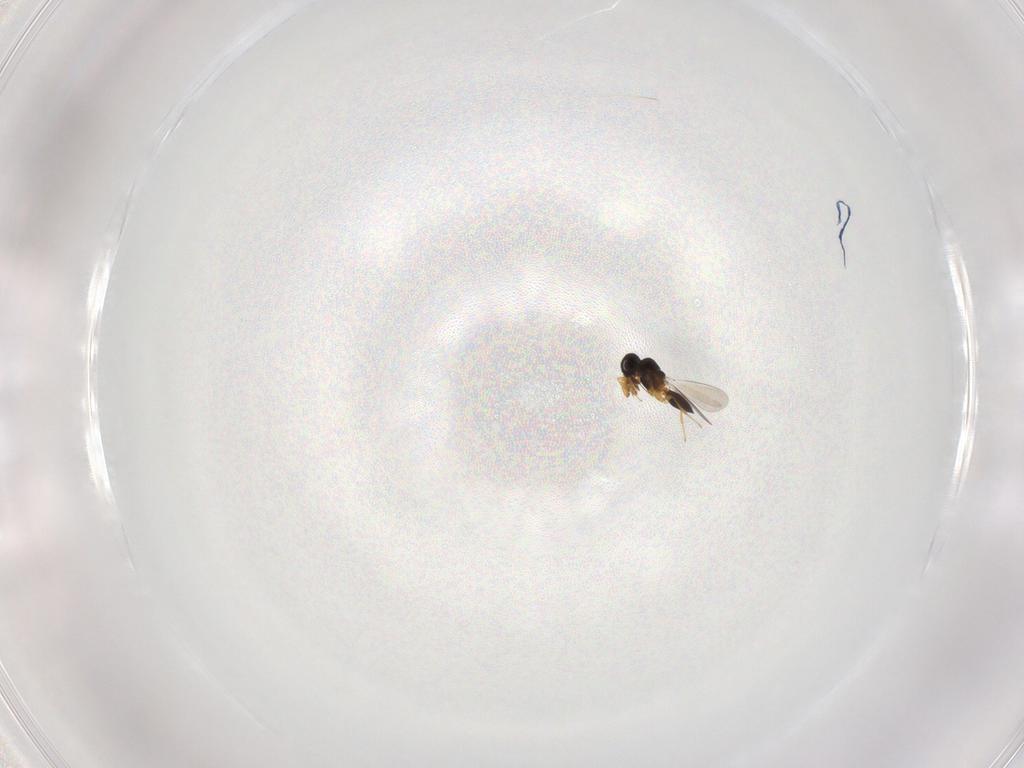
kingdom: Animalia
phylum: Arthropoda
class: Insecta
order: Hymenoptera
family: Platygastridae
